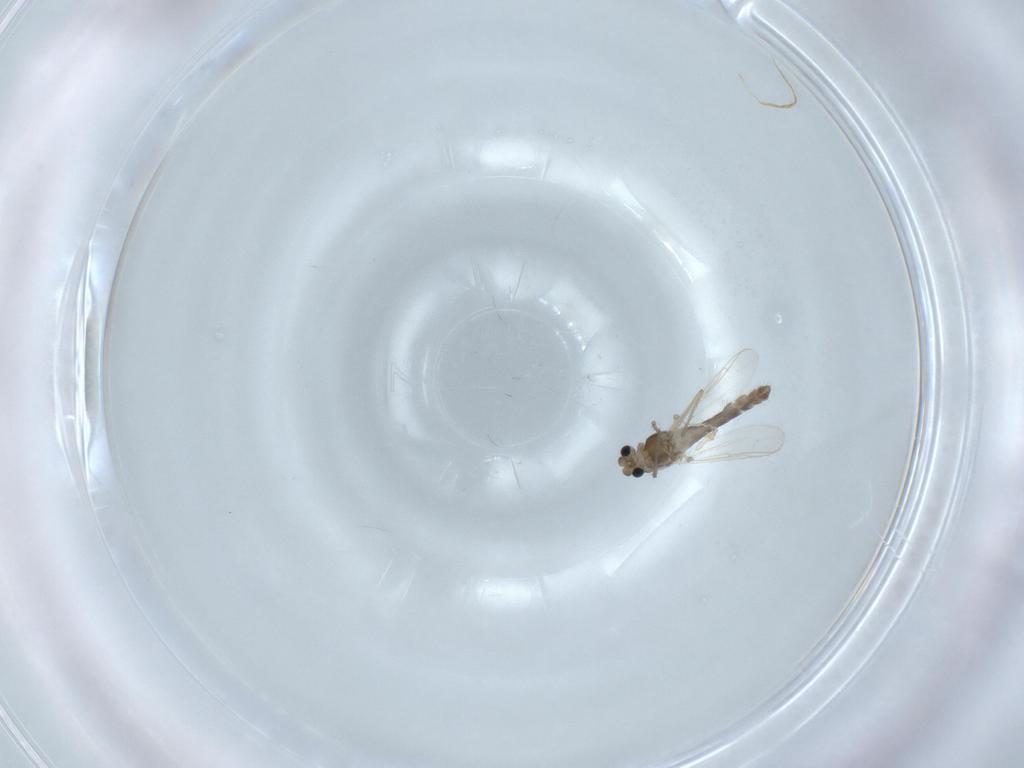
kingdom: Animalia
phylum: Arthropoda
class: Insecta
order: Diptera
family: Chironomidae
